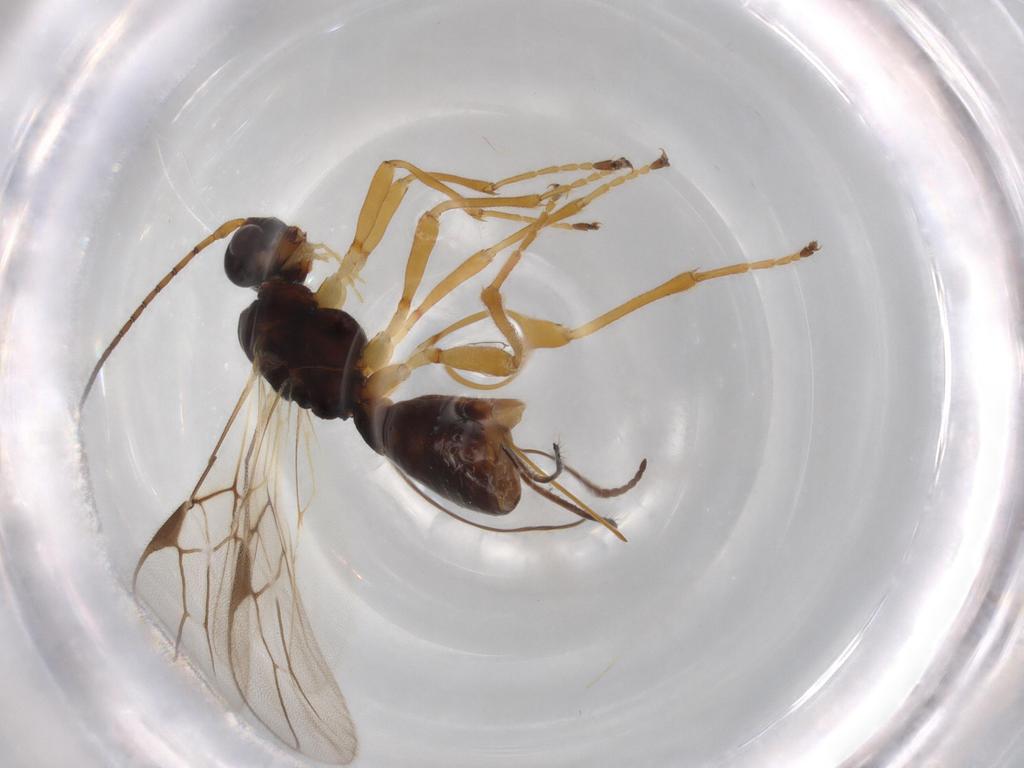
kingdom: Animalia
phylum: Arthropoda
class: Insecta
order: Hymenoptera
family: Braconidae
